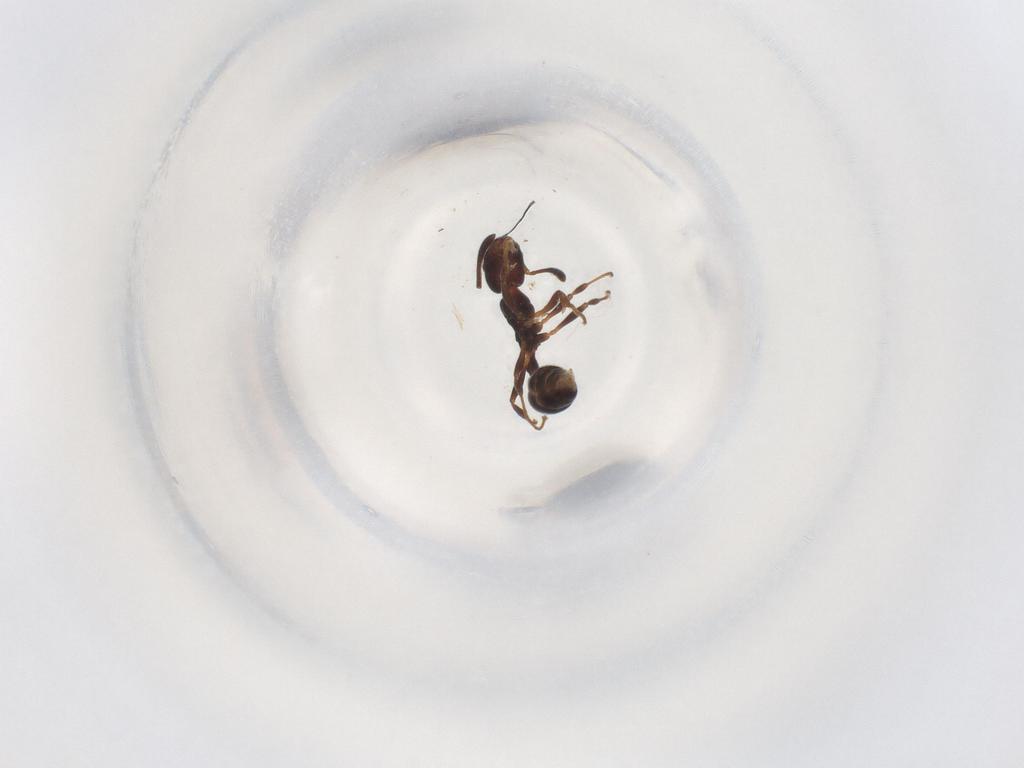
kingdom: Animalia
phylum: Arthropoda
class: Insecta
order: Hymenoptera
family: Formicidae
